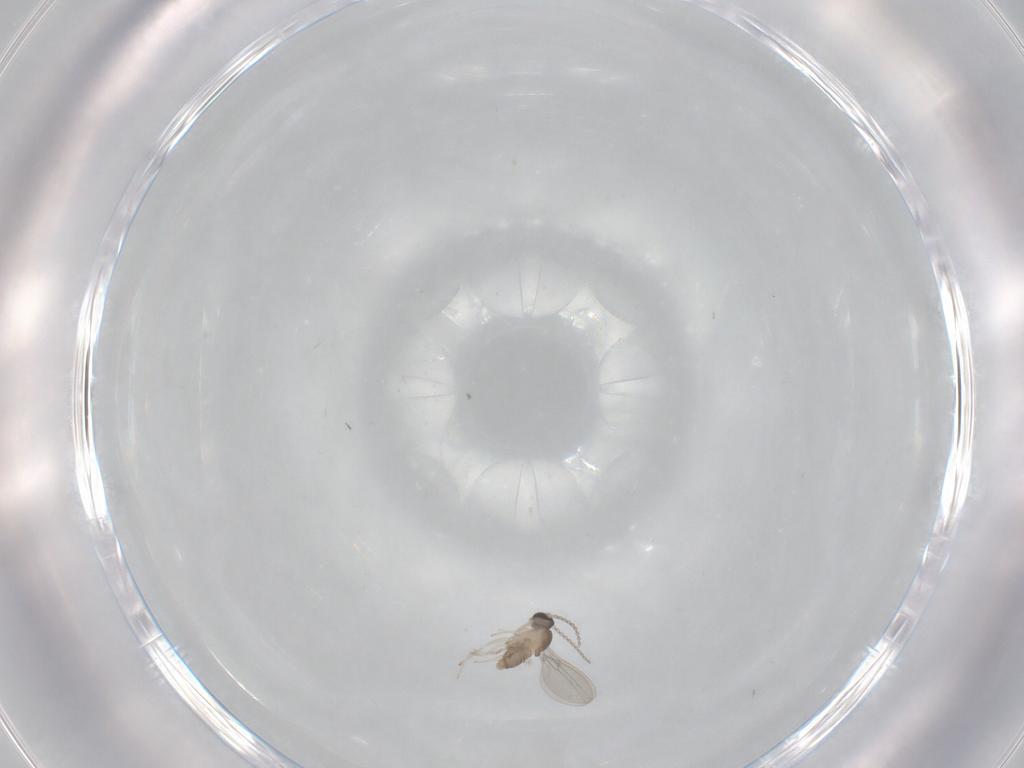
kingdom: Animalia
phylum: Arthropoda
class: Insecta
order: Diptera
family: Cecidomyiidae
